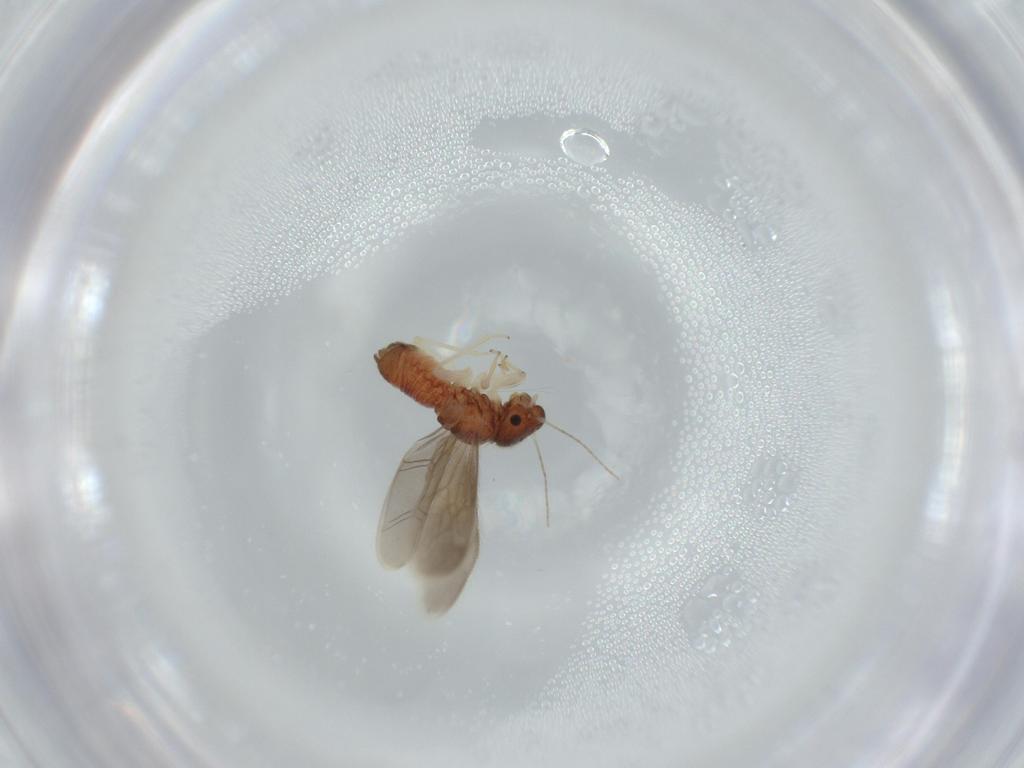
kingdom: Animalia
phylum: Arthropoda
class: Insecta
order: Psocodea
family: Archipsocidae
